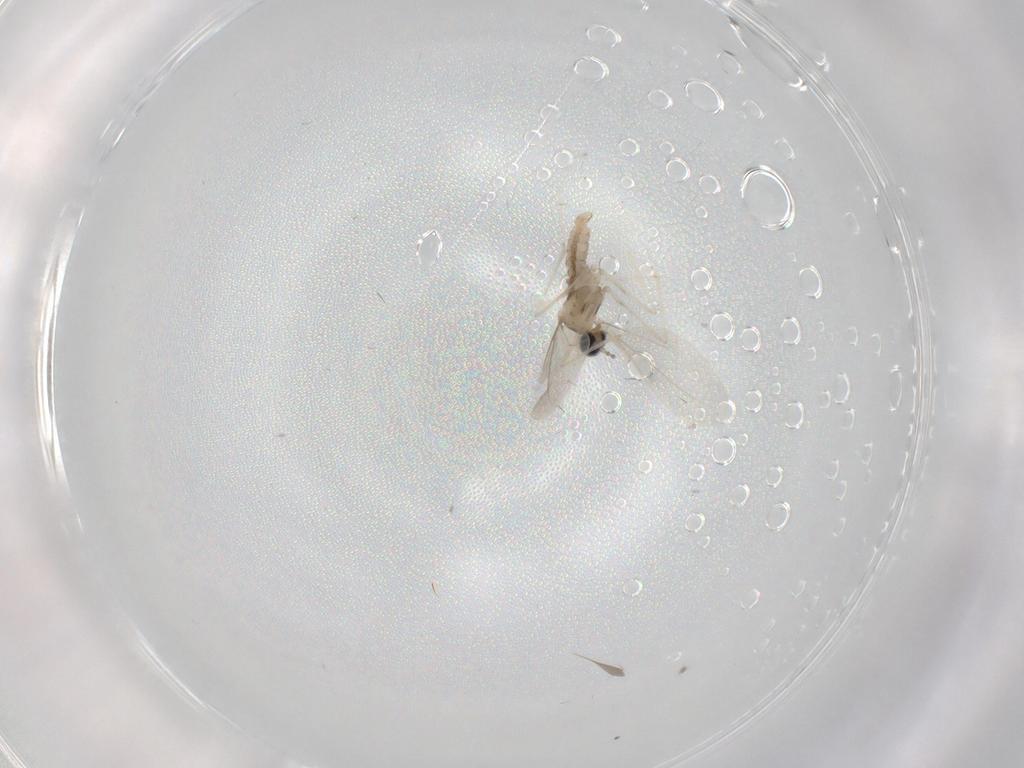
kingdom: Animalia
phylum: Arthropoda
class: Insecta
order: Diptera
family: Cecidomyiidae
